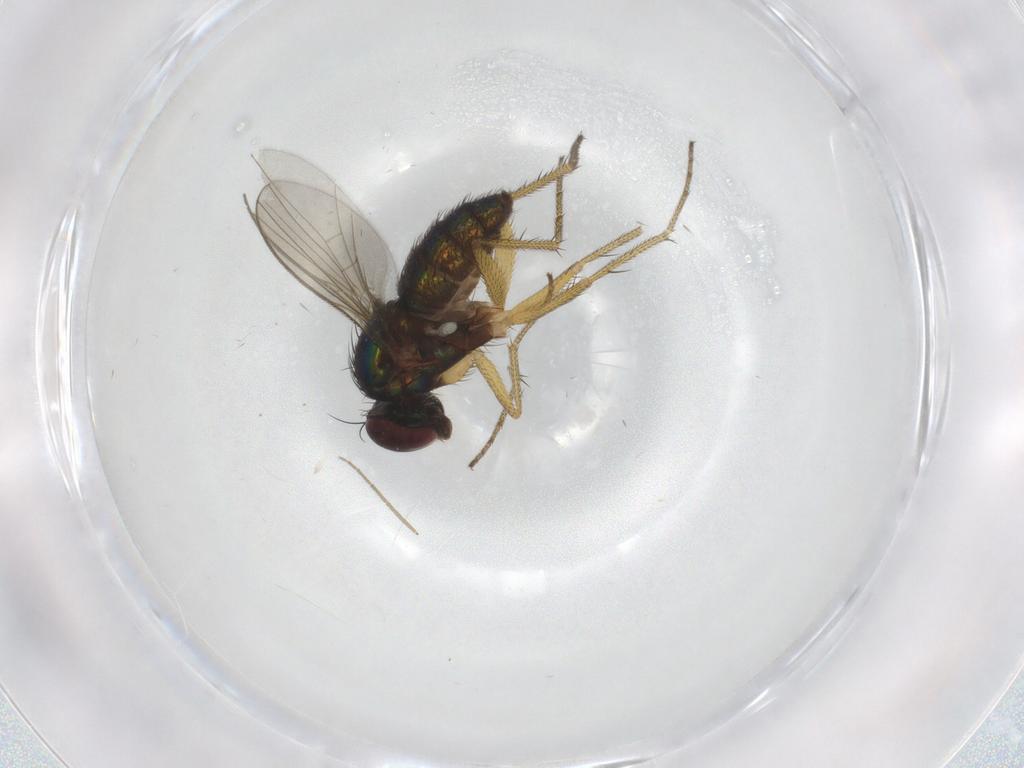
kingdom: Animalia
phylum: Arthropoda
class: Insecta
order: Diptera
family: Dolichopodidae
